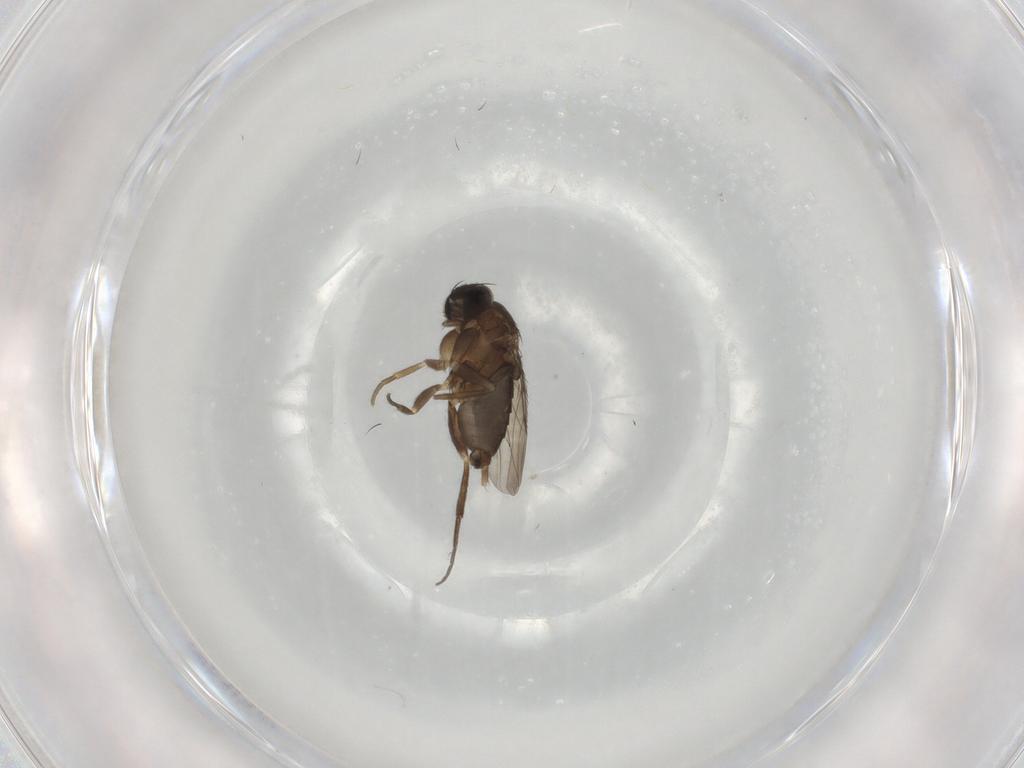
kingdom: Animalia
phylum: Arthropoda
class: Insecta
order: Diptera
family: Phoridae
